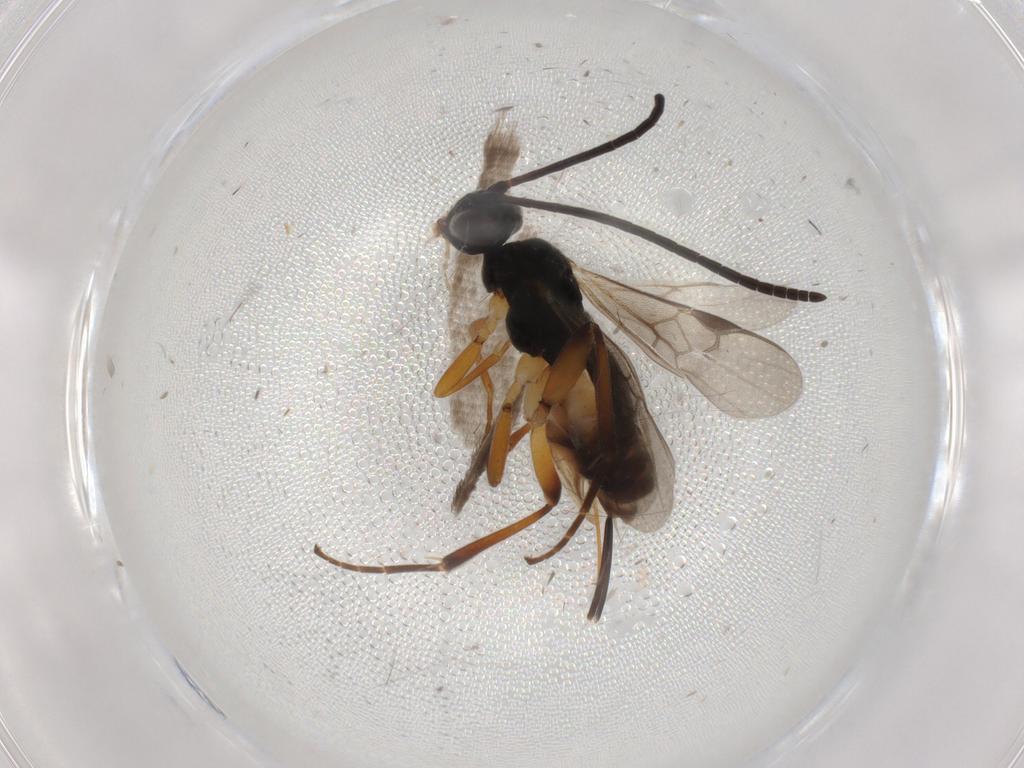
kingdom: Animalia
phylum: Arthropoda
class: Insecta
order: Hymenoptera
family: Braconidae
